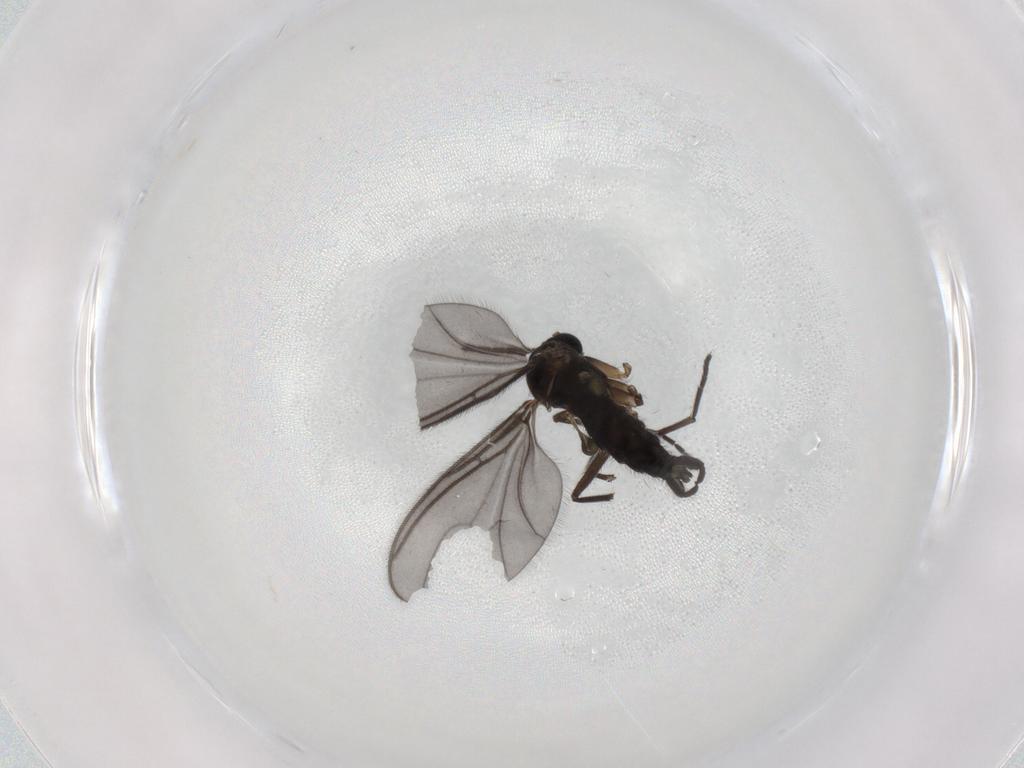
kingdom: Animalia
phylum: Arthropoda
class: Insecta
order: Diptera
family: Sciaridae
